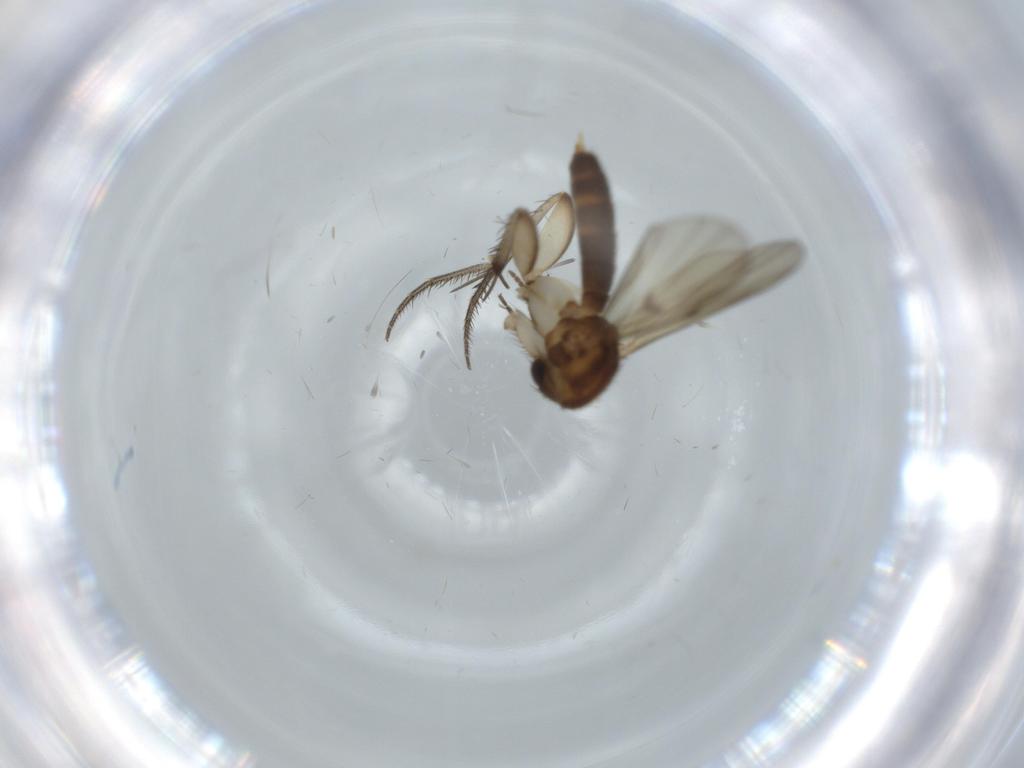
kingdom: Animalia
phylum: Arthropoda
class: Insecta
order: Diptera
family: Mycetophilidae
